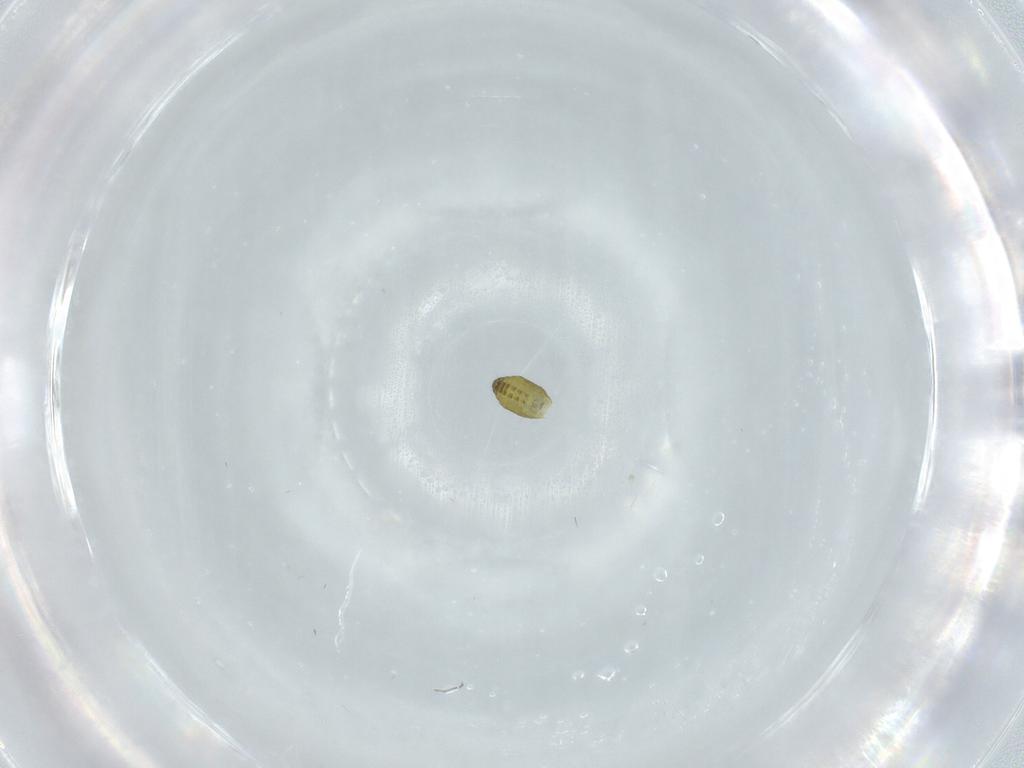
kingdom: Animalia
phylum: Arthropoda
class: Insecta
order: Diptera
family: Ceratopogonidae
